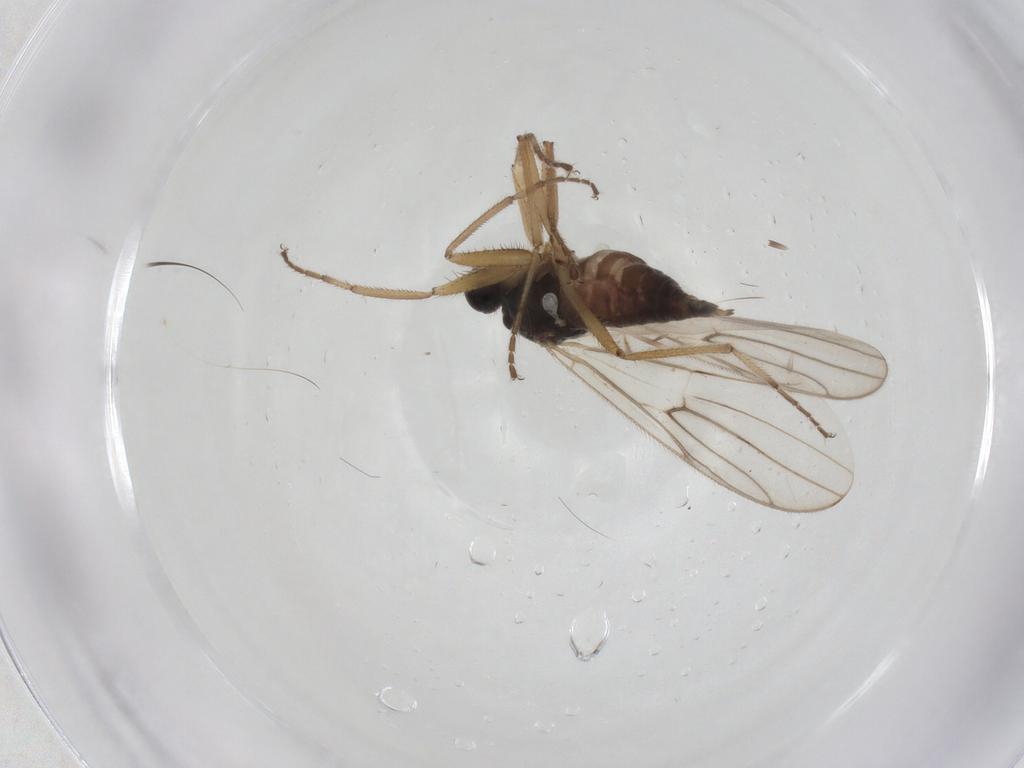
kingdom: Animalia
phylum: Arthropoda
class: Insecta
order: Diptera
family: Hybotidae
